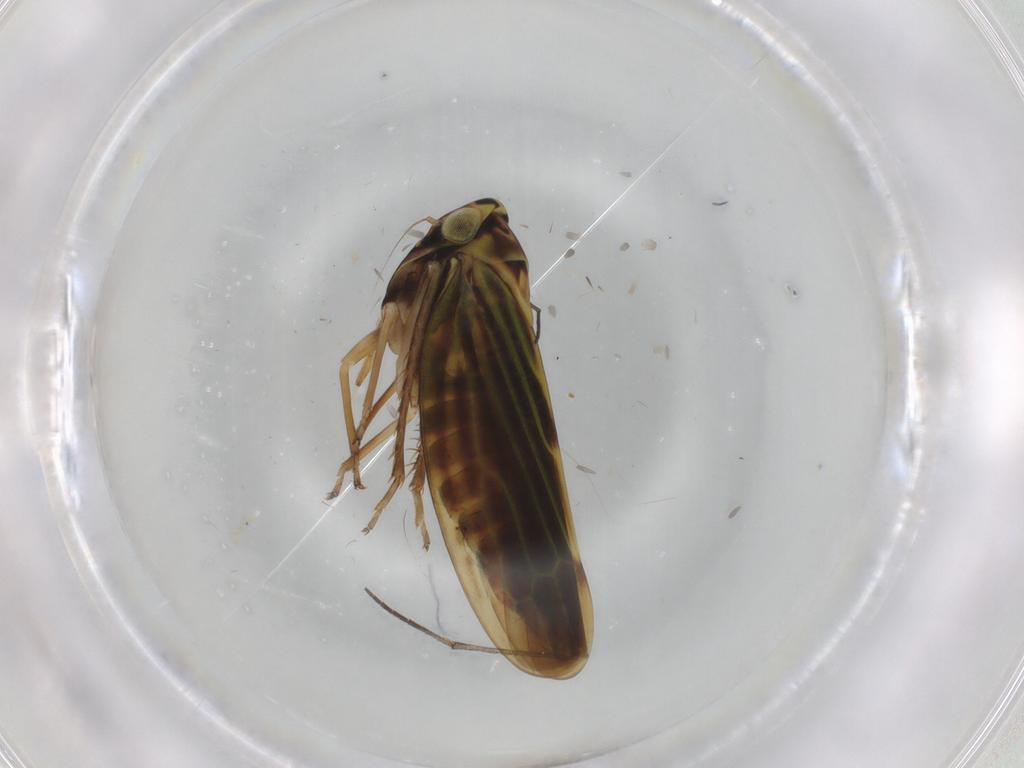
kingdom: Animalia
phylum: Arthropoda
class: Insecta
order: Hemiptera
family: Cicadellidae
